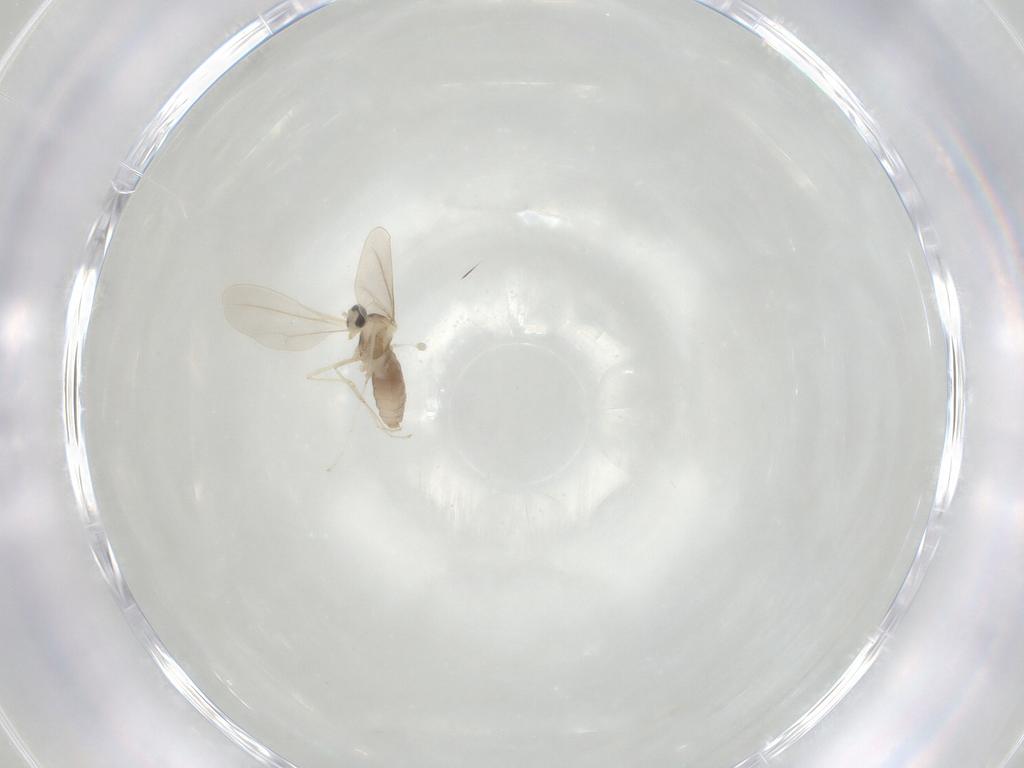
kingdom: Animalia
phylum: Arthropoda
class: Insecta
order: Diptera
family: Cecidomyiidae
